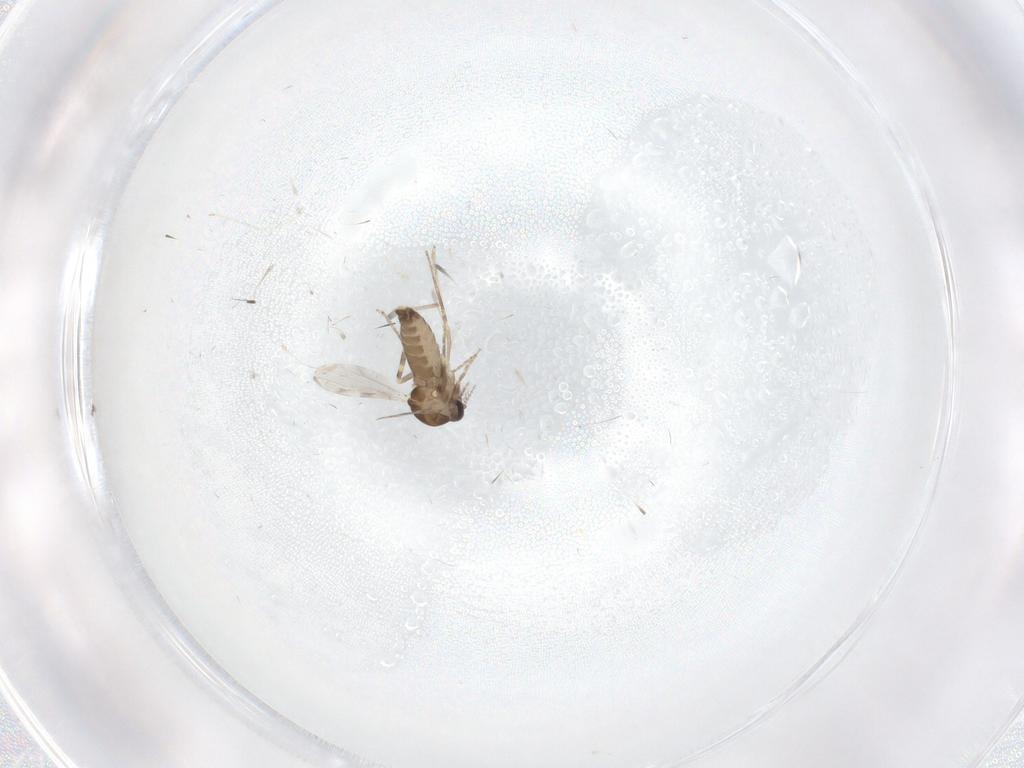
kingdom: Animalia
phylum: Arthropoda
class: Insecta
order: Diptera
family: Ceratopogonidae
